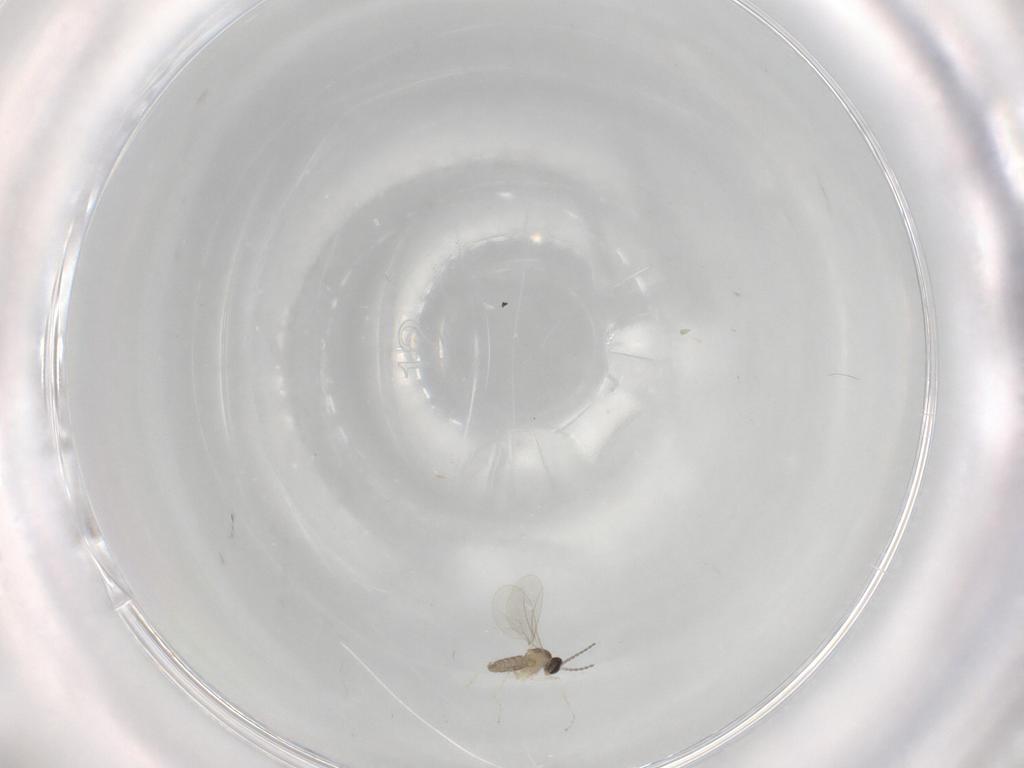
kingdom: Animalia
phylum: Arthropoda
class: Insecta
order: Diptera
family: Cecidomyiidae
